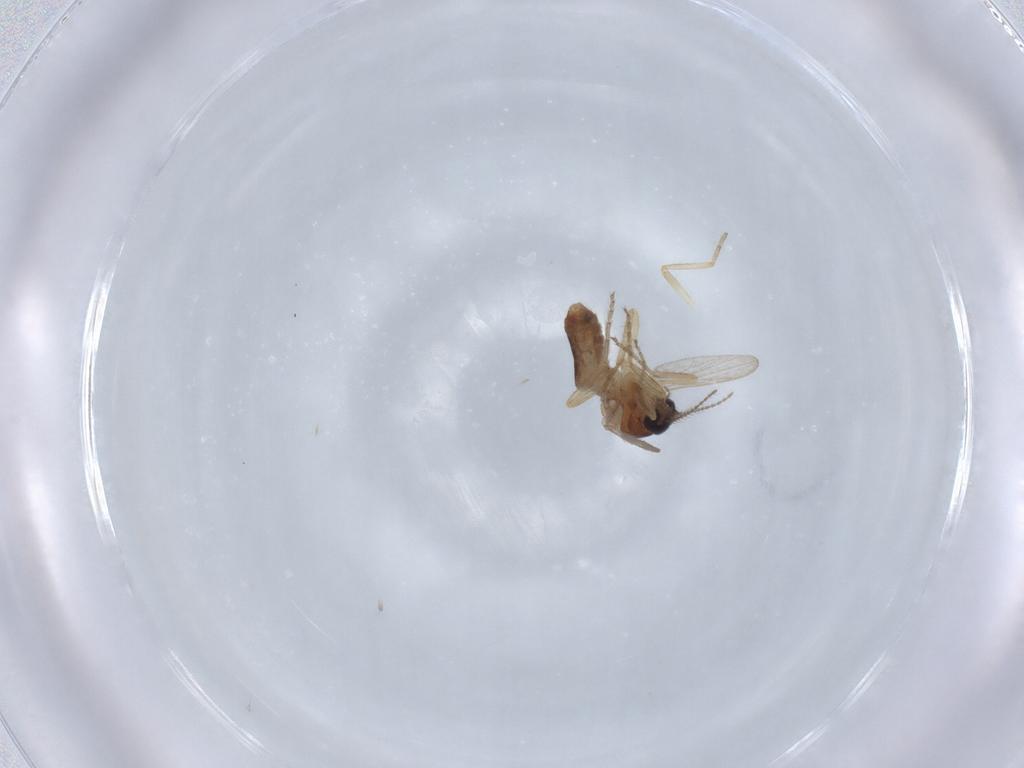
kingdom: Animalia
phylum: Arthropoda
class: Insecta
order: Diptera
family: Ceratopogonidae
